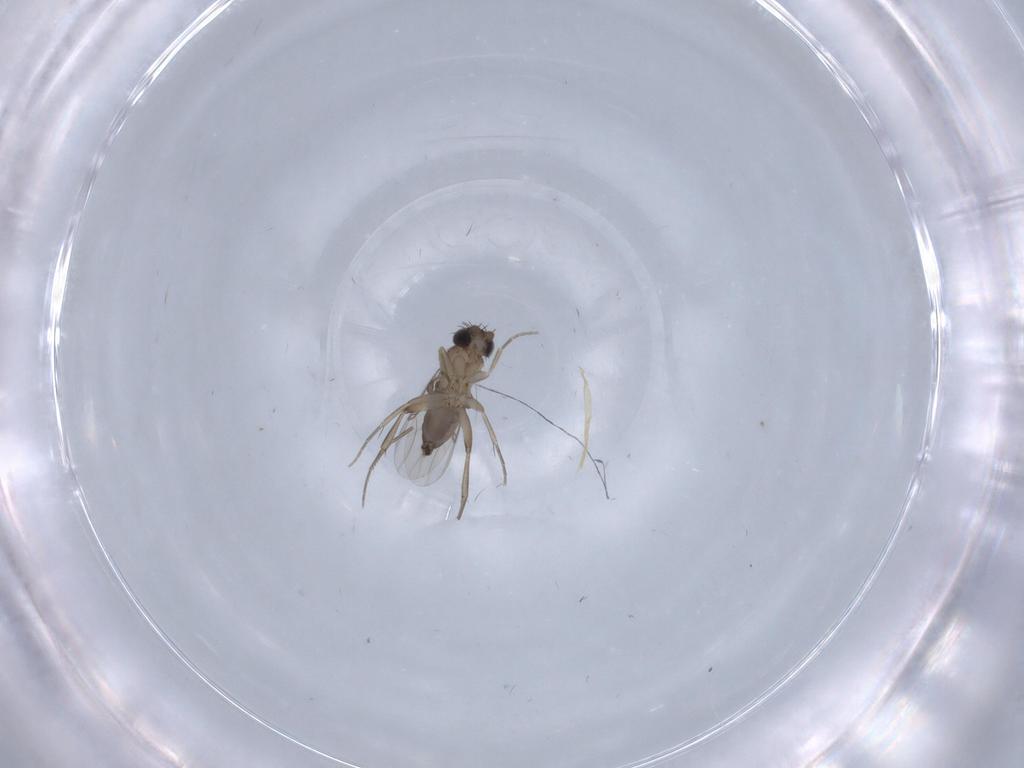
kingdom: Animalia
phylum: Arthropoda
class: Insecta
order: Diptera
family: Phoridae
